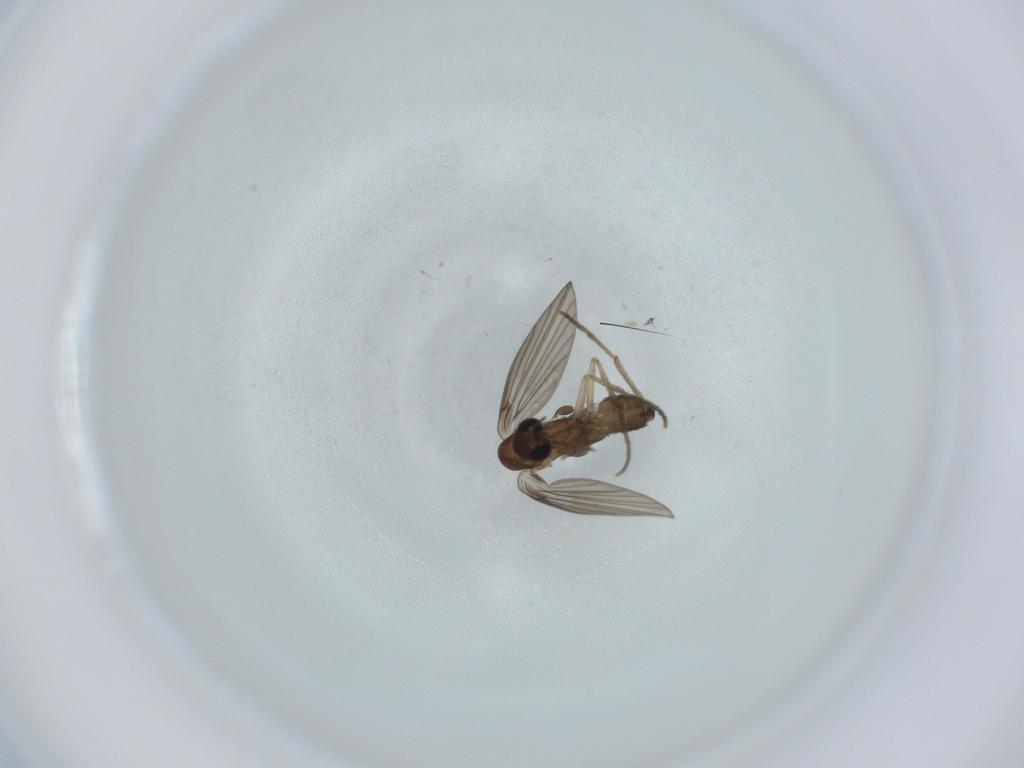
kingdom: Animalia
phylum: Arthropoda
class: Insecta
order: Diptera
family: Psychodidae
